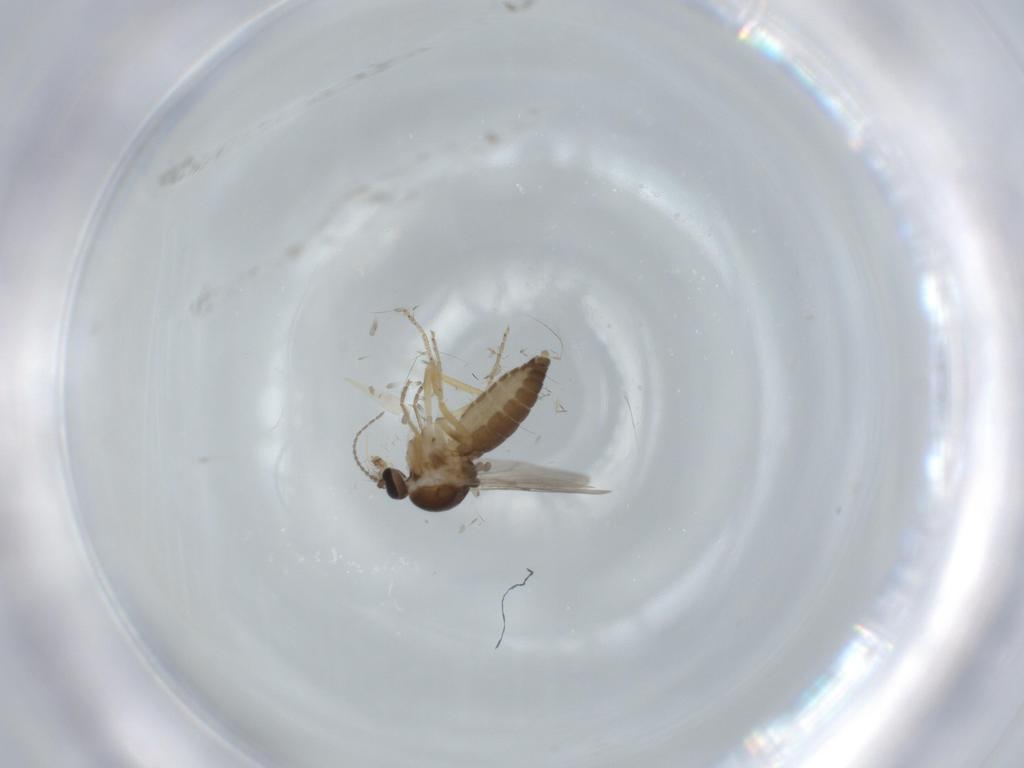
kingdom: Animalia
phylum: Arthropoda
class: Insecta
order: Diptera
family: Ceratopogonidae
